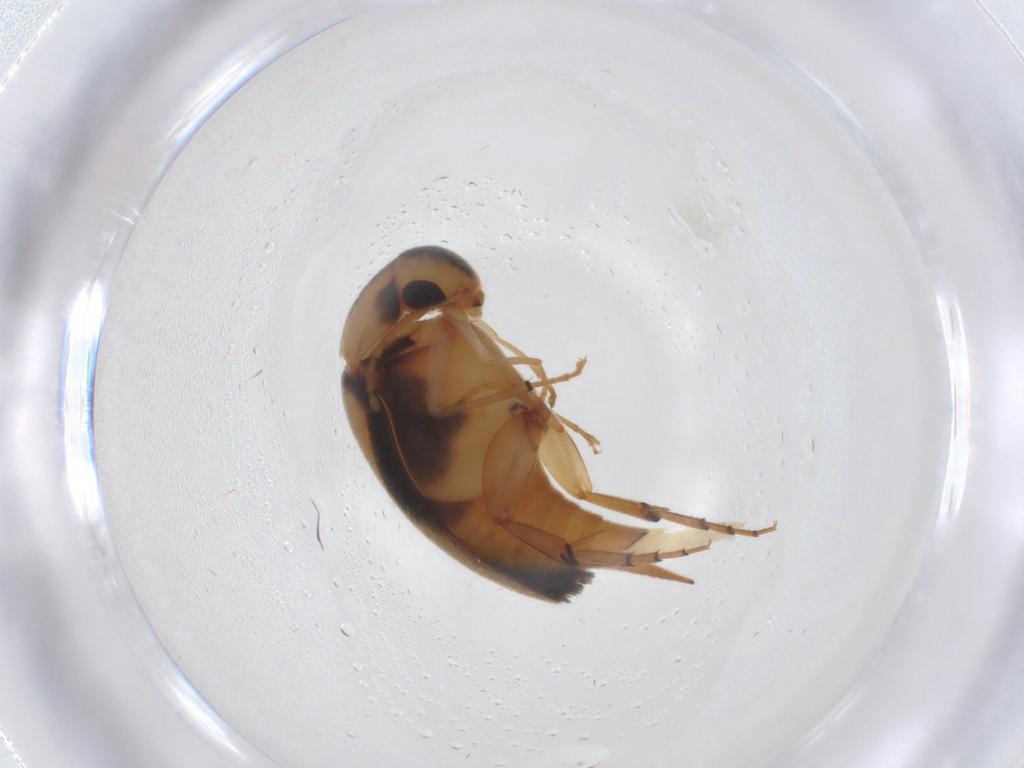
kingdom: Animalia
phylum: Arthropoda
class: Insecta
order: Coleoptera
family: Mordellidae
